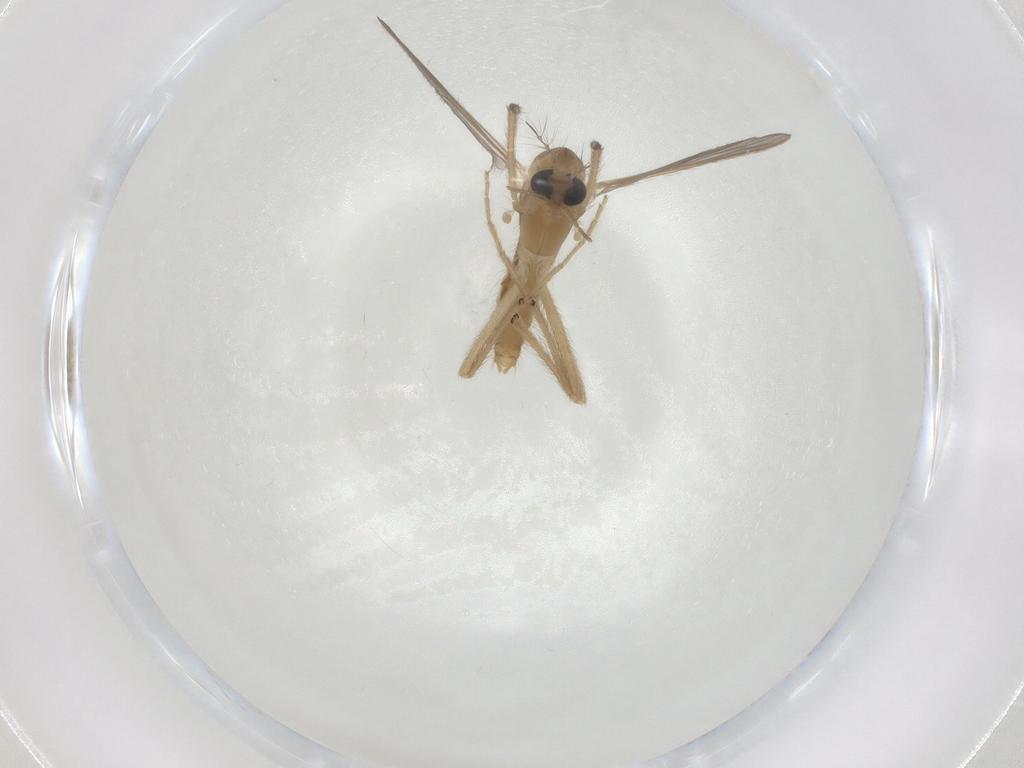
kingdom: Animalia
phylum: Arthropoda
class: Insecta
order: Diptera
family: Chironomidae
